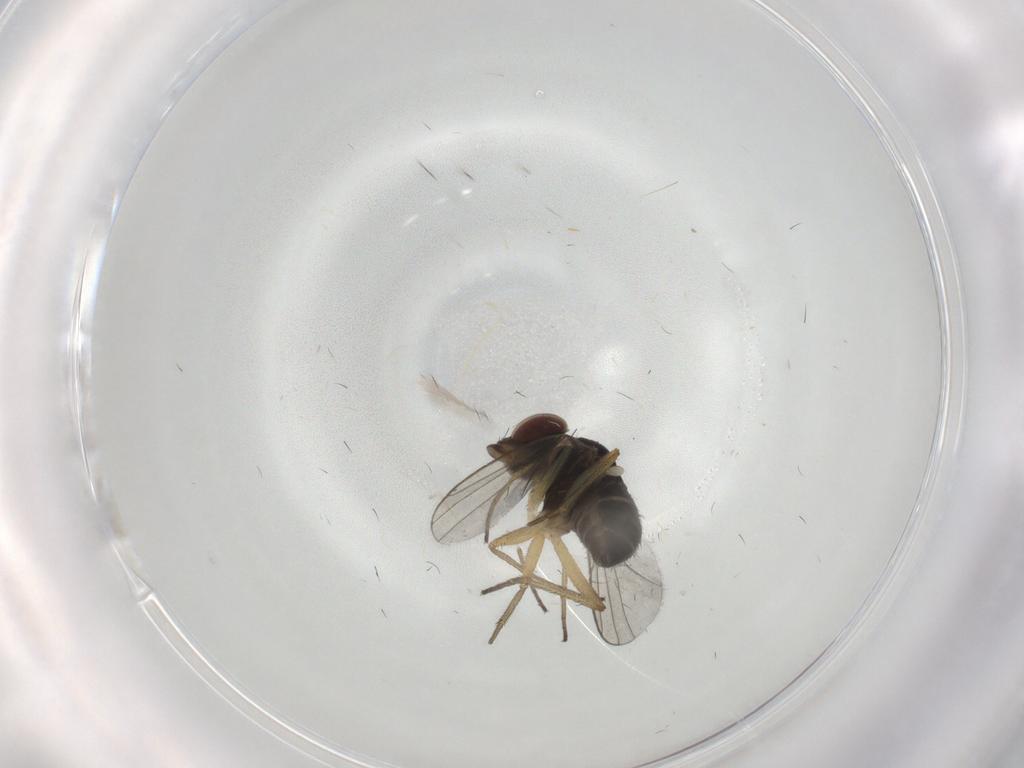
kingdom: Animalia
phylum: Arthropoda
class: Insecta
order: Diptera
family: Dolichopodidae
